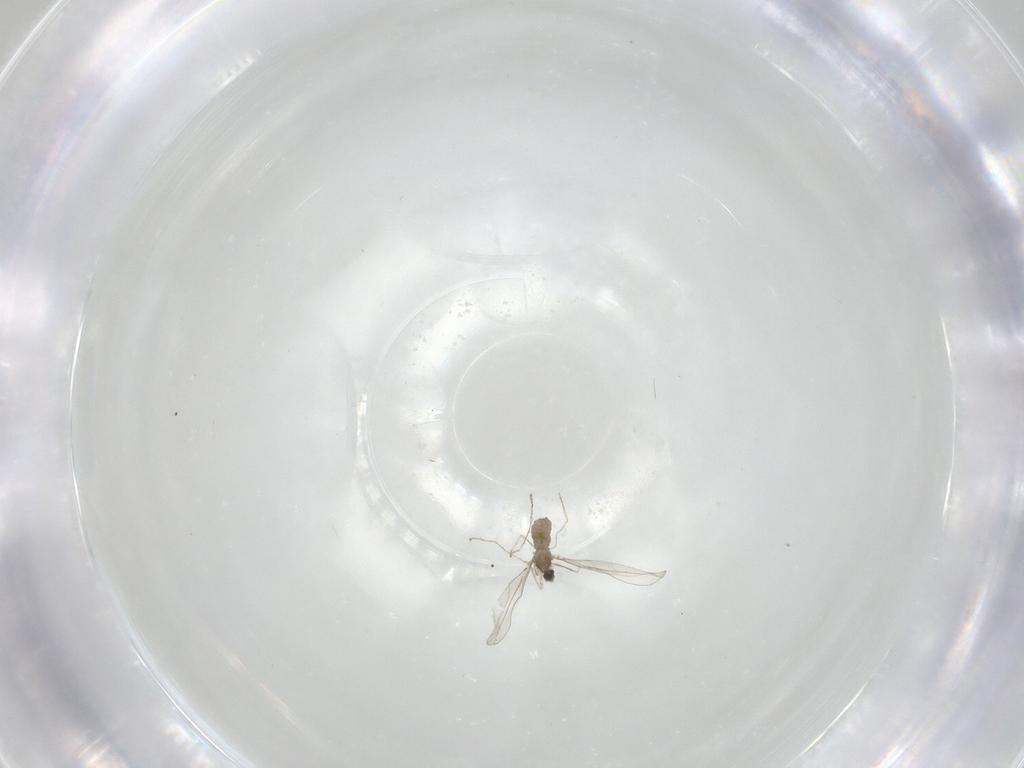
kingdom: Animalia
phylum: Arthropoda
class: Insecta
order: Diptera
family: Ceratopogonidae
